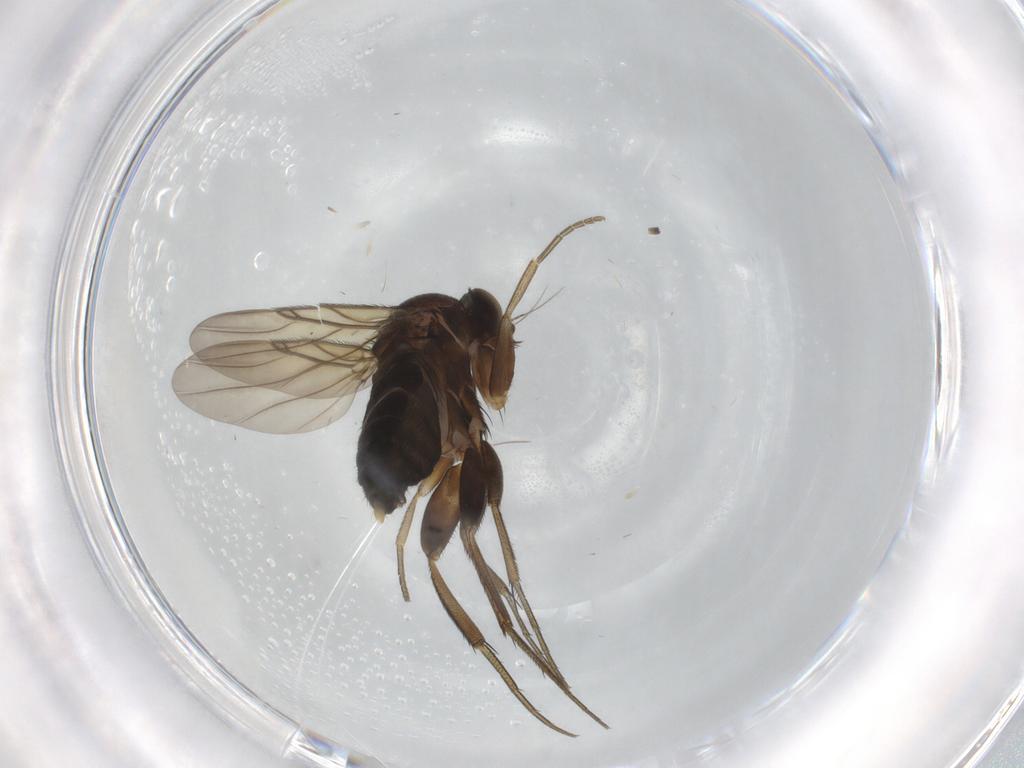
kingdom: Animalia
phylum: Arthropoda
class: Insecta
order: Diptera
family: Phoridae
